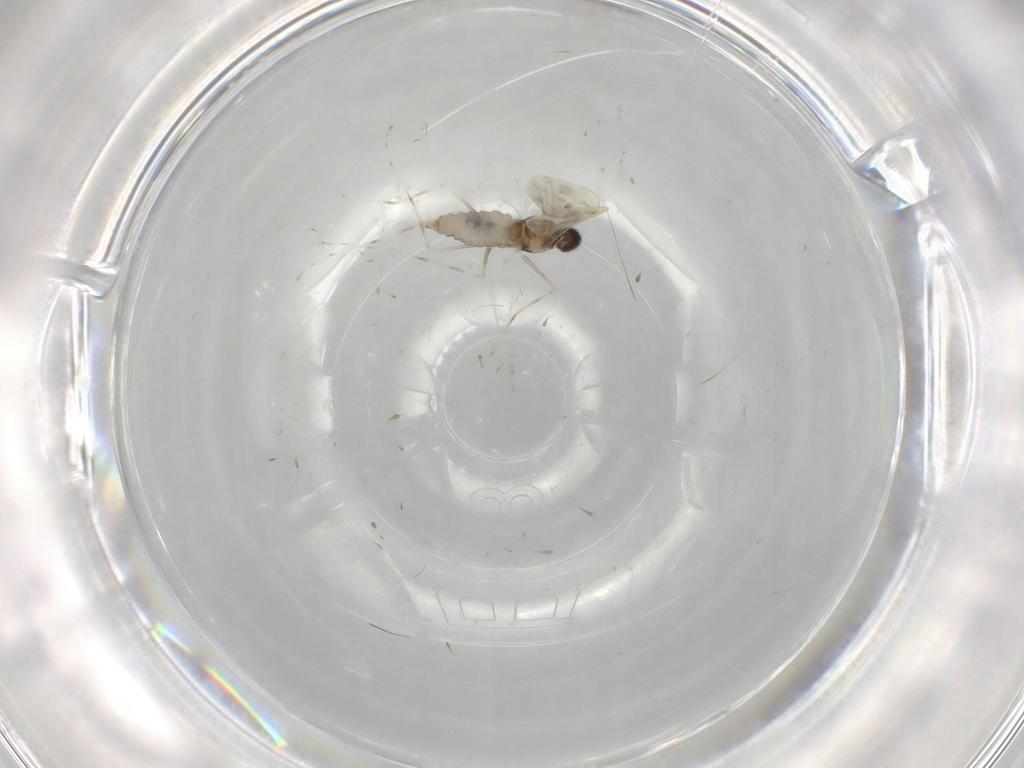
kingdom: Animalia
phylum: Arthropoda
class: Insecta
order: Diptera
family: Cecidomyiidae
